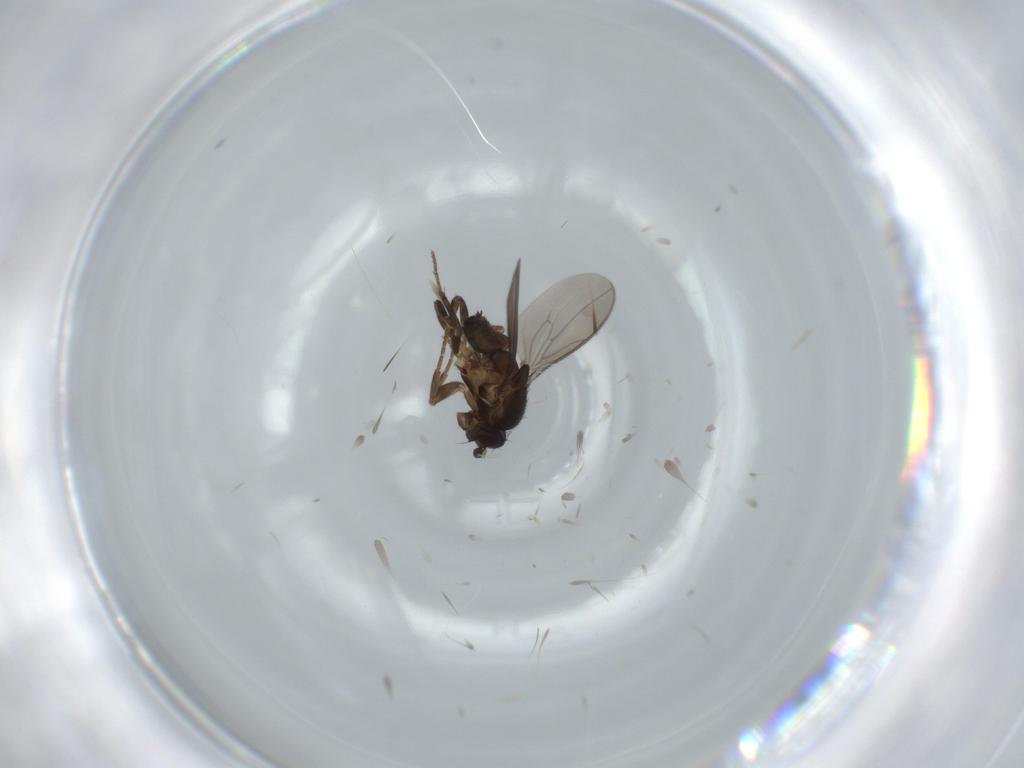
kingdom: Animalia
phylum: Arthropoda
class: Insecta
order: Diptera
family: Sphaeroceridae
